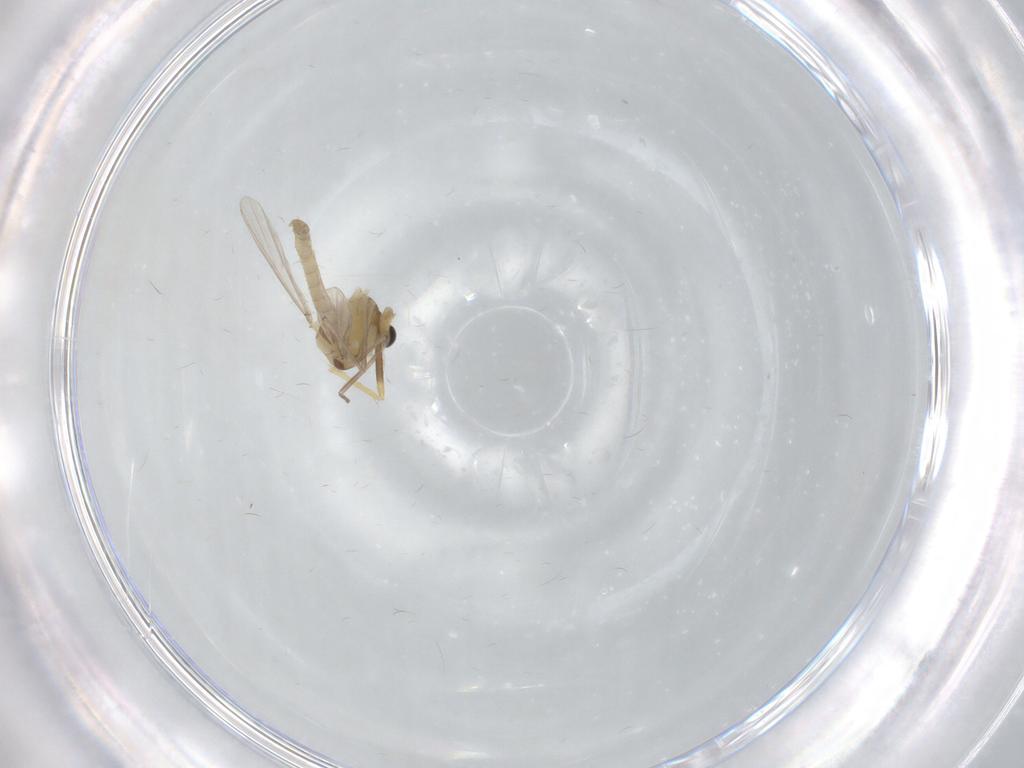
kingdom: Animalia
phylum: Arthropoda
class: Insecta
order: Diptera
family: Chironomidae
